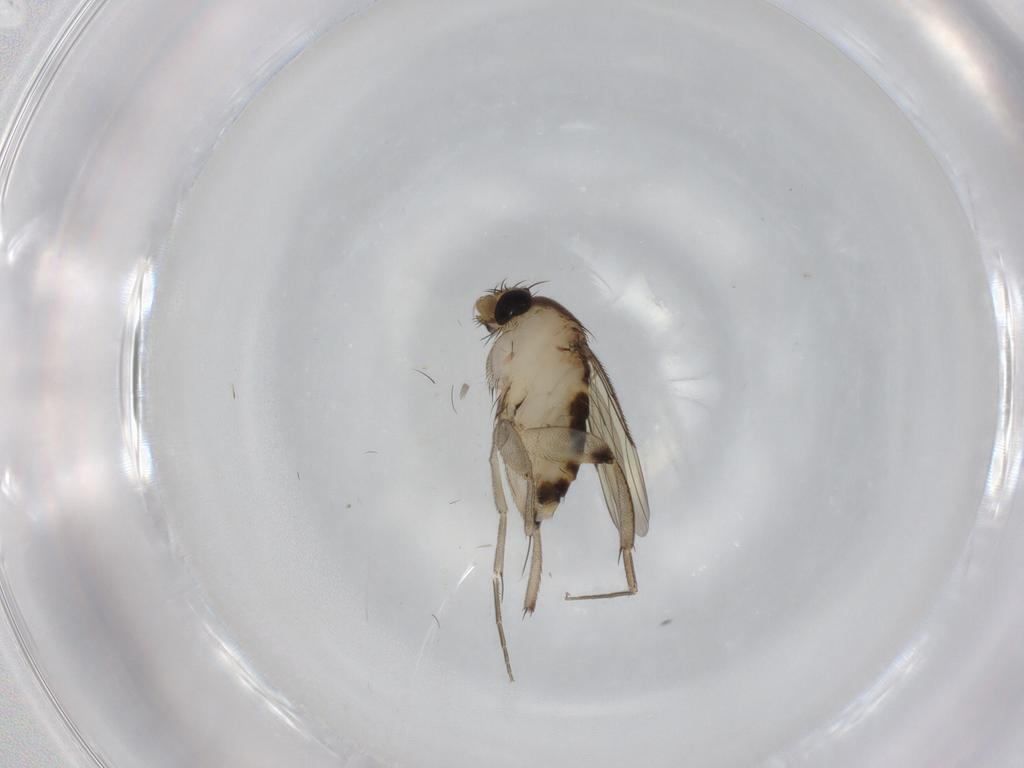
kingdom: Animalia
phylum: Arthropoda
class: Insecta
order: Diptera
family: Phoridae
